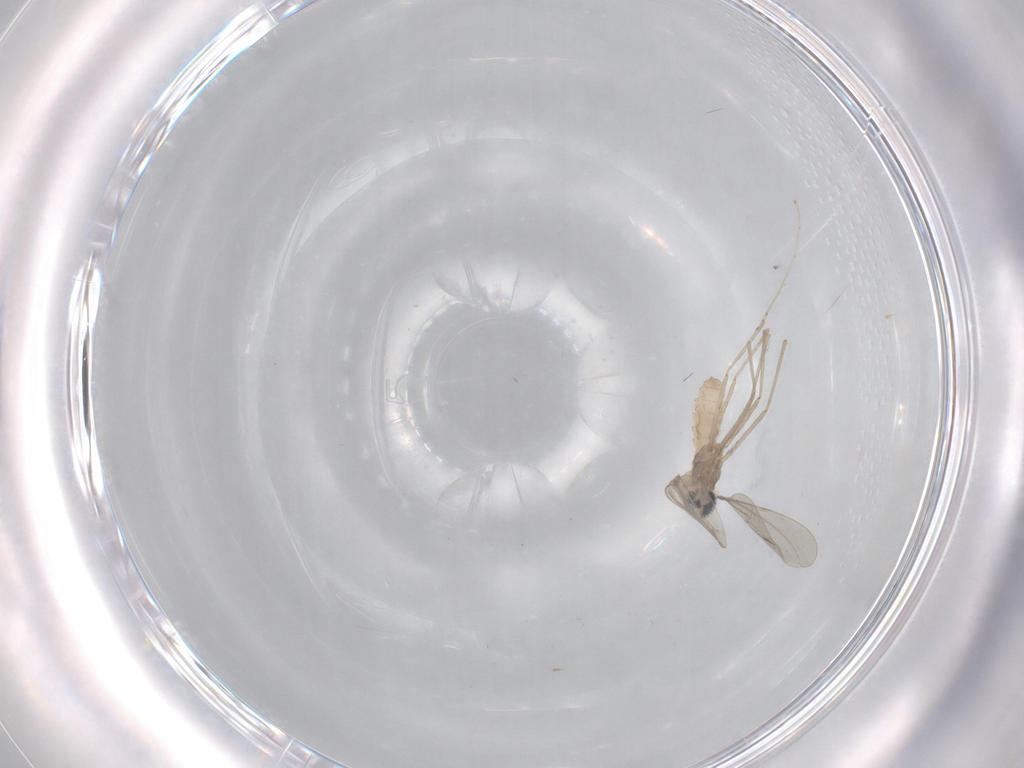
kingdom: Animalia
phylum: Arthropoda
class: Insecta
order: Diptera
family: Cecidomyiidae
